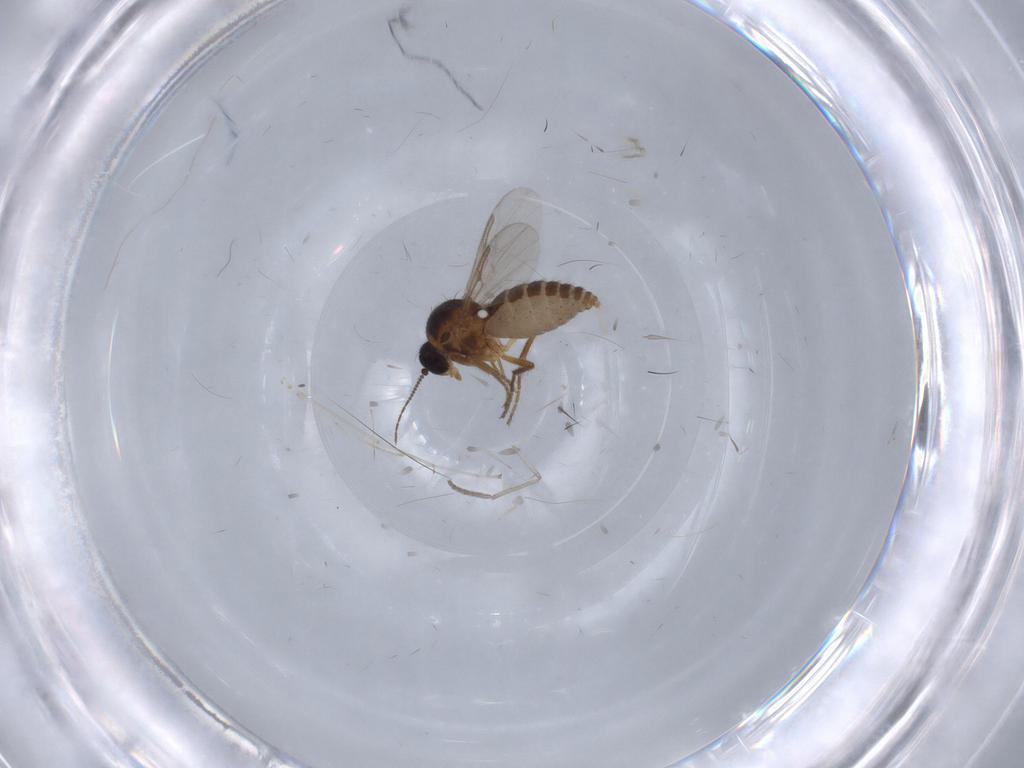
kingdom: Animalia
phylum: Arthropoda
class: Insecta
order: Diptera
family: Ceratopogonidae
